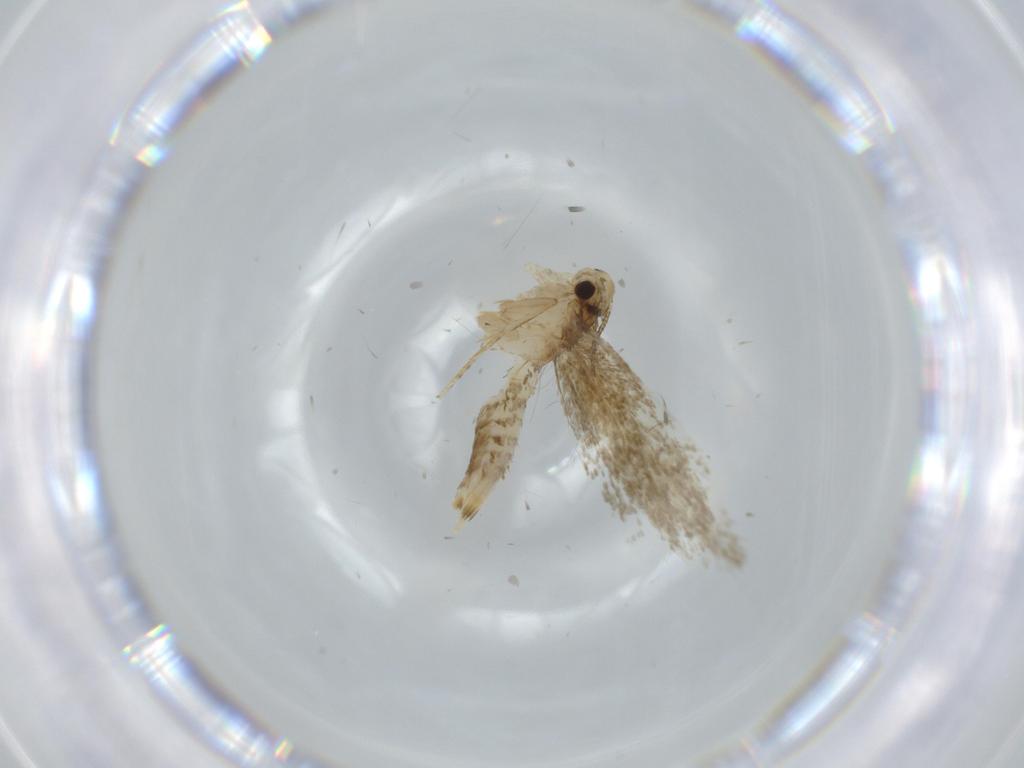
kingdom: Animalia
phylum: Arthropoda
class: Insecta
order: Lepidoptera
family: Tineidae
